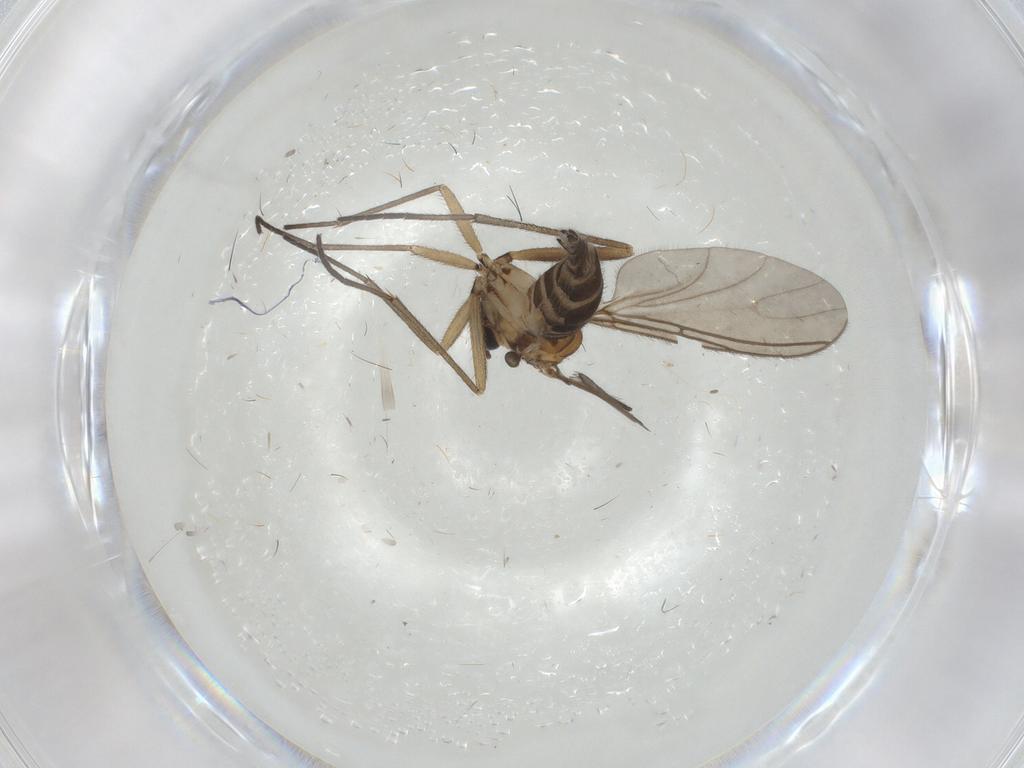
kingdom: Animalia
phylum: Arthropoda
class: Insecta
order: Diptera
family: Sciaridae
